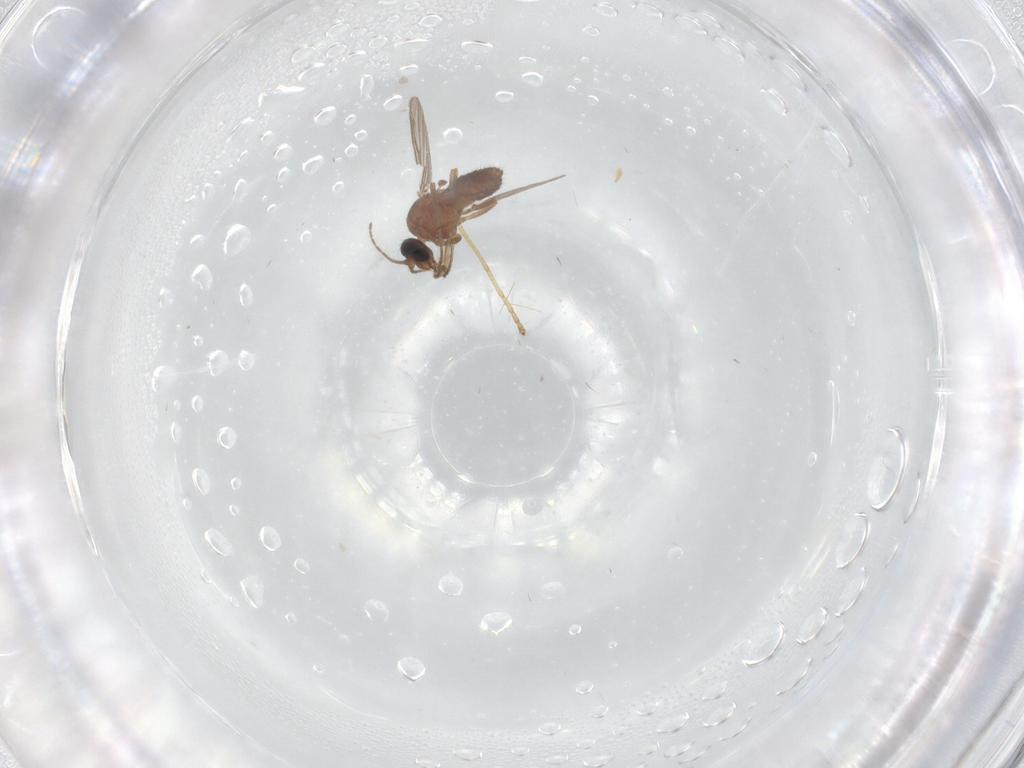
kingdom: Animalia
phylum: Arthropoda
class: Insecta
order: Diptera
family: Limoniidae
